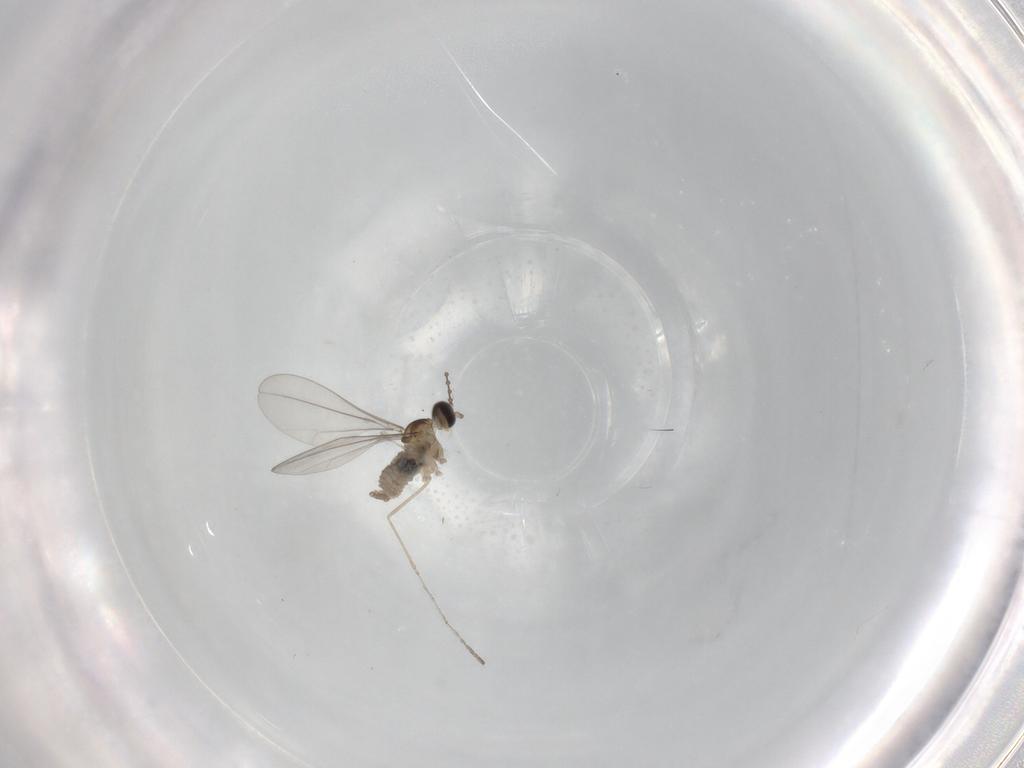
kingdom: Animalia
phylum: Arthropoda
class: Insecta
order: Diptera
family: Cecidomyiidae
